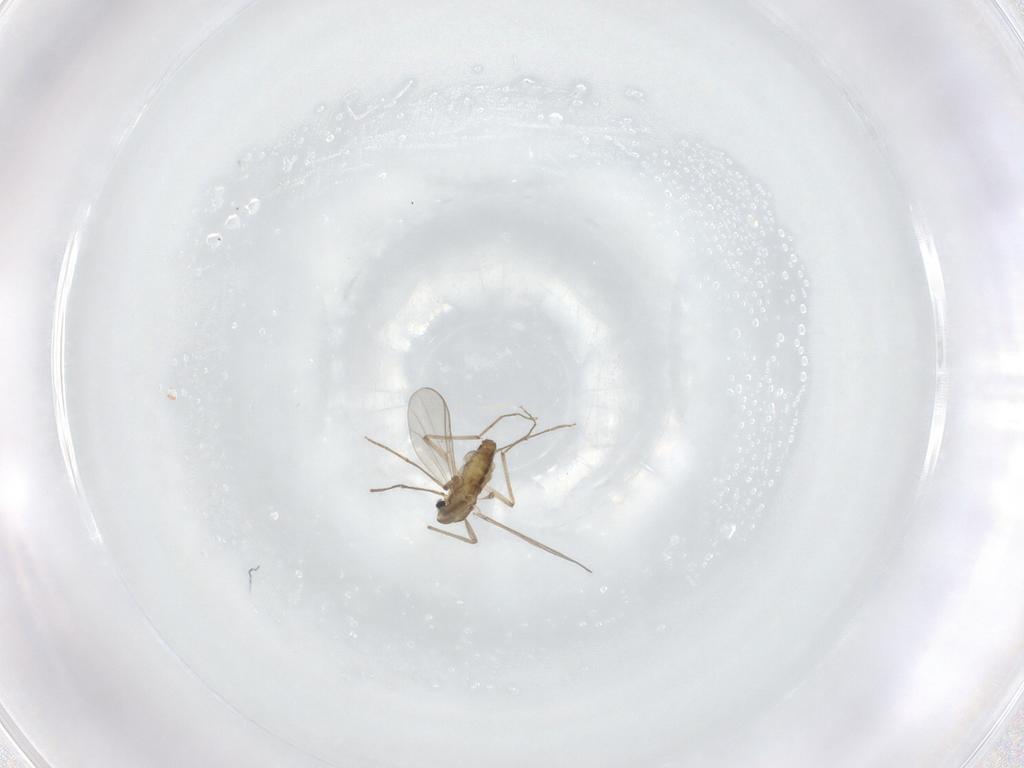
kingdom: Animalia
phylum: Arthropoda
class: Insecta
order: Diptera
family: Chironomidae
